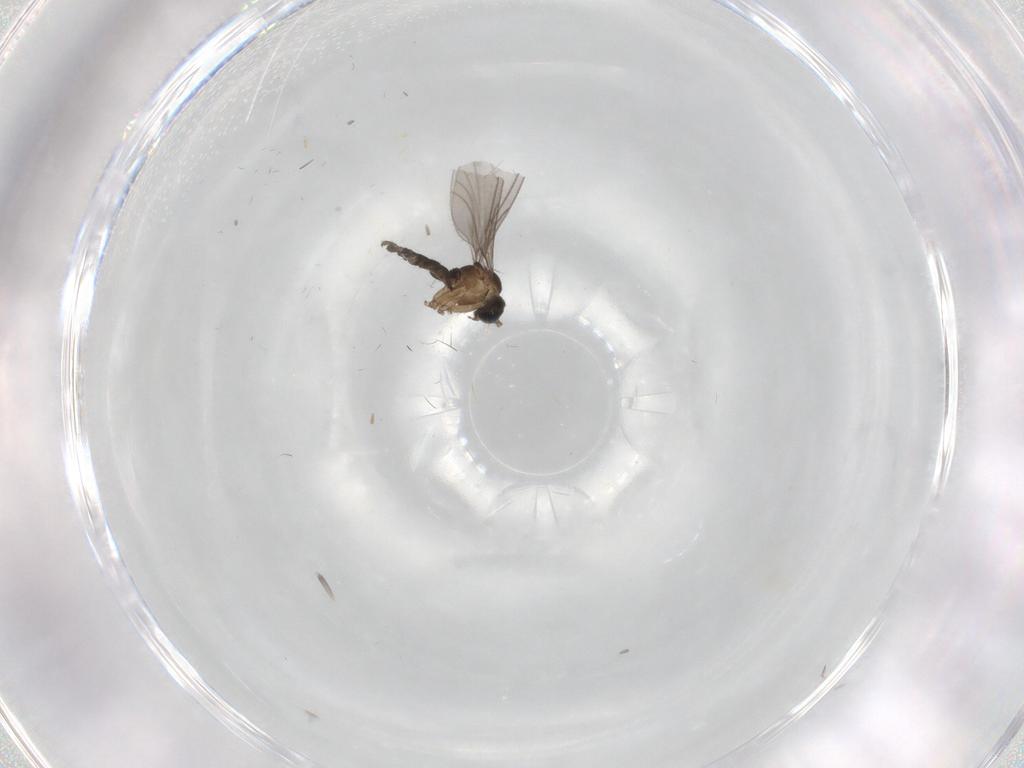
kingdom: Animalia
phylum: Arthropoda
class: Insecta
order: Diptera
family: Sciaridae
